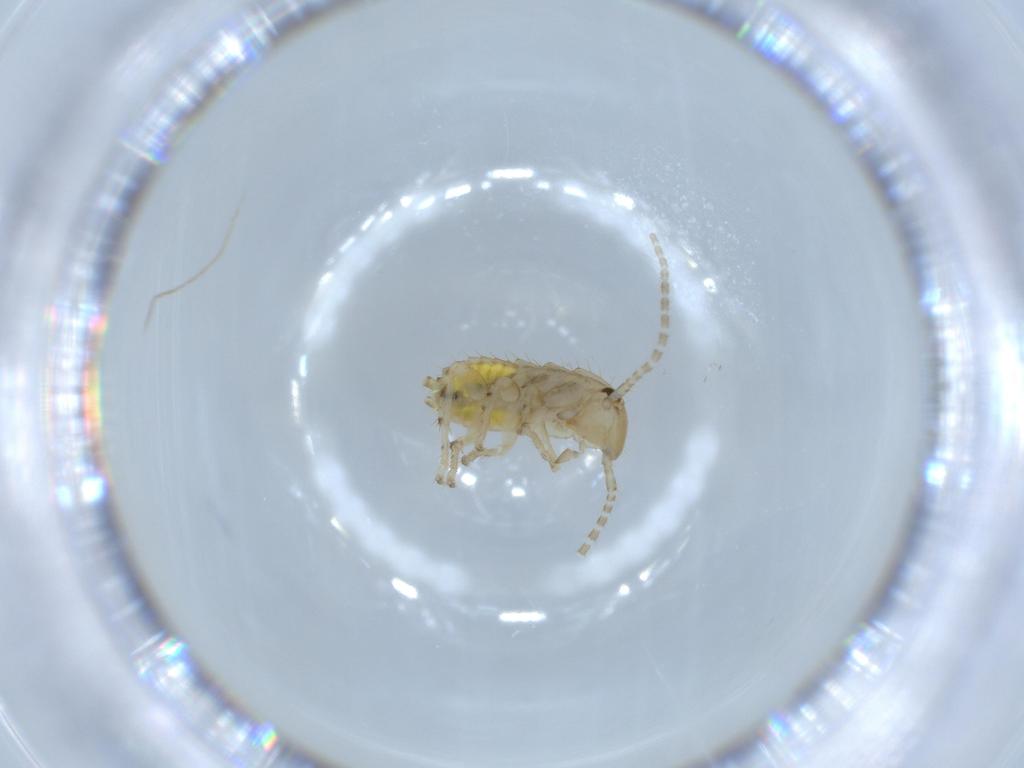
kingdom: Animalia
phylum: Arthropoda
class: Insecta
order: Blattodea
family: Ectobiidae
